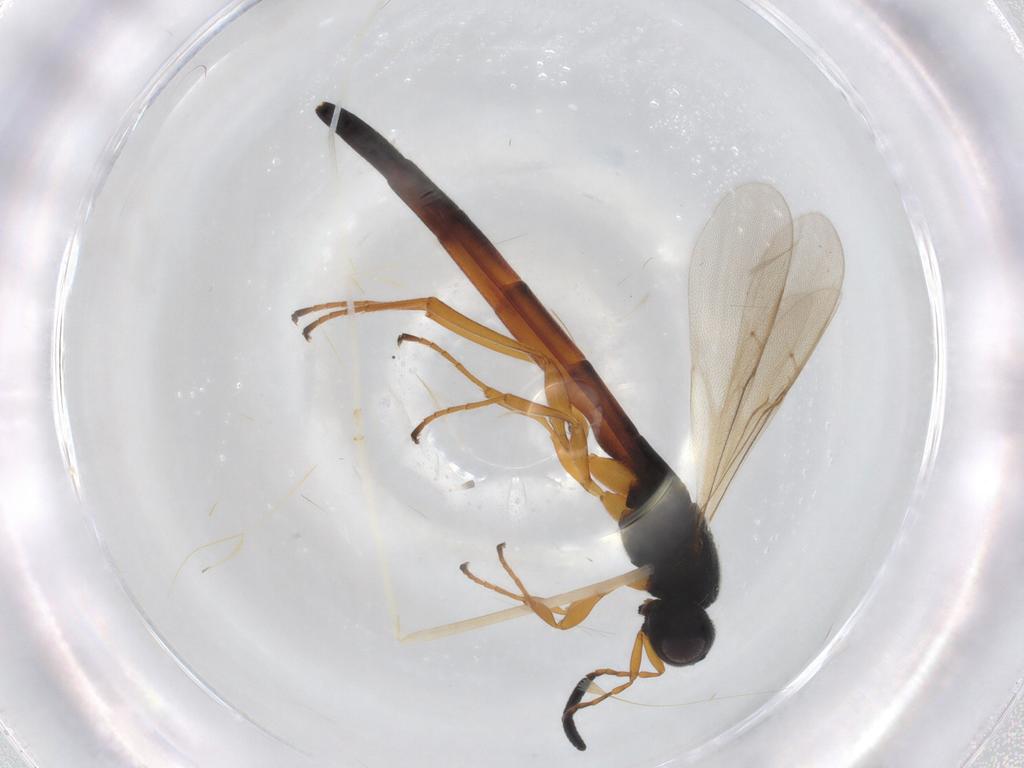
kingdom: Animalia
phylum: Arthropoda
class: Insecta
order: Hymenoptera
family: Scelionidae
